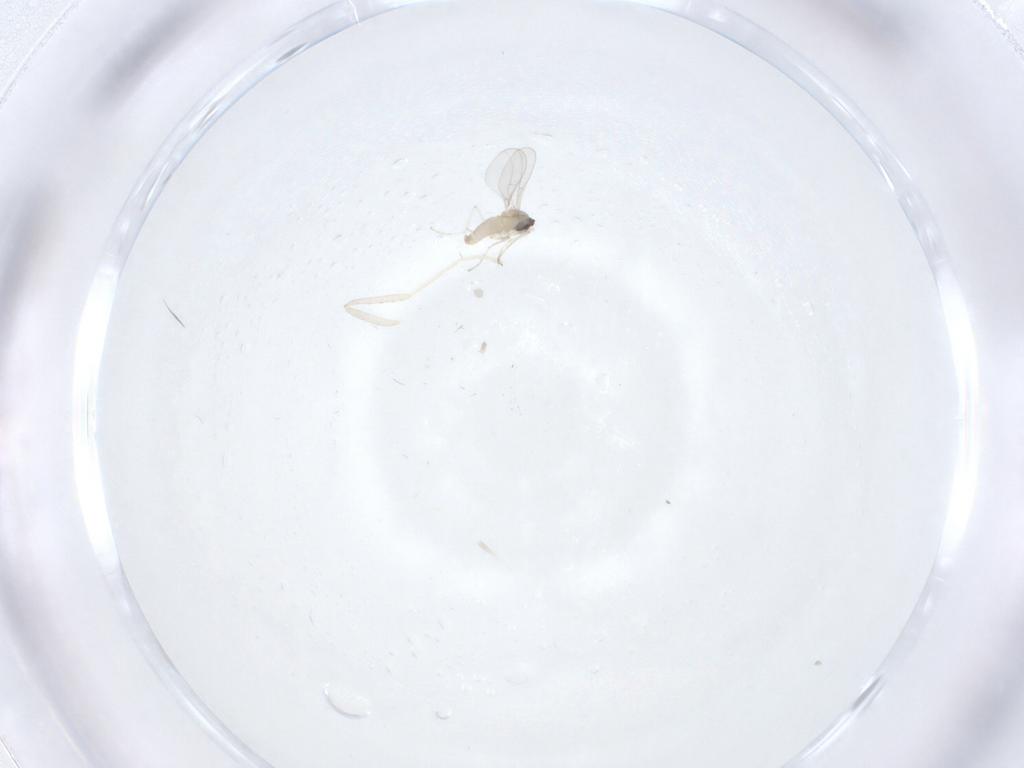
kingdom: Animalia
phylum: Arthropoda
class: Insecta
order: Diptera
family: Cecidomyiidae
